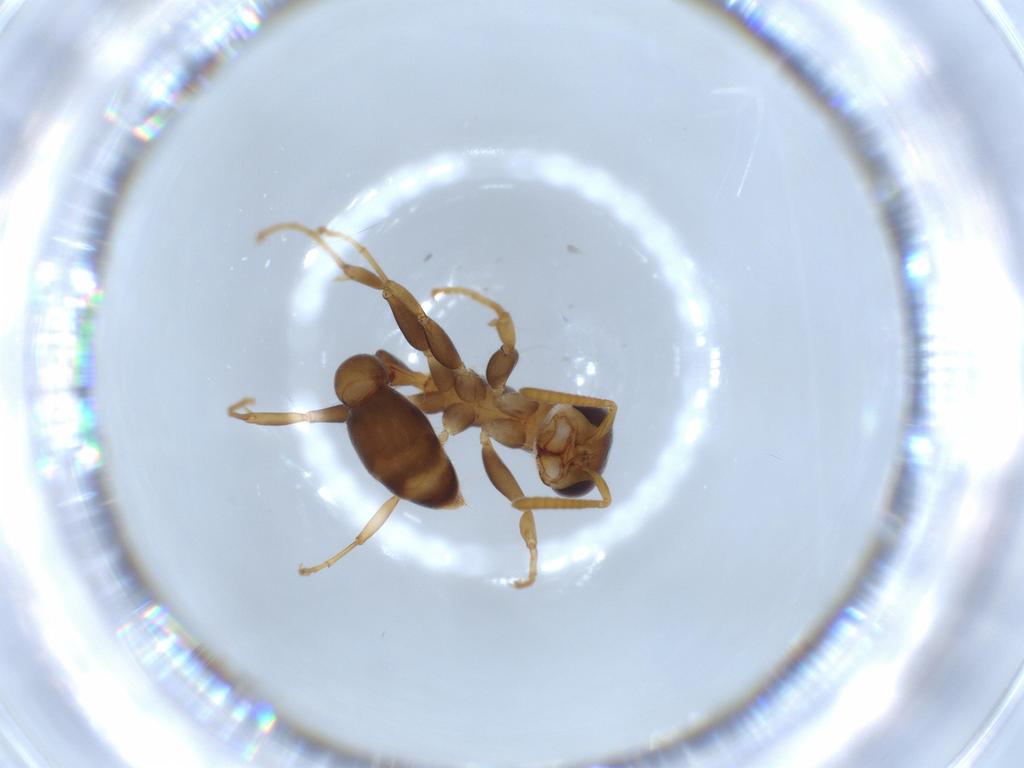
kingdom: Animalia
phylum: Arthropoda
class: Insecta
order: Hymenoptera
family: Formicidae
